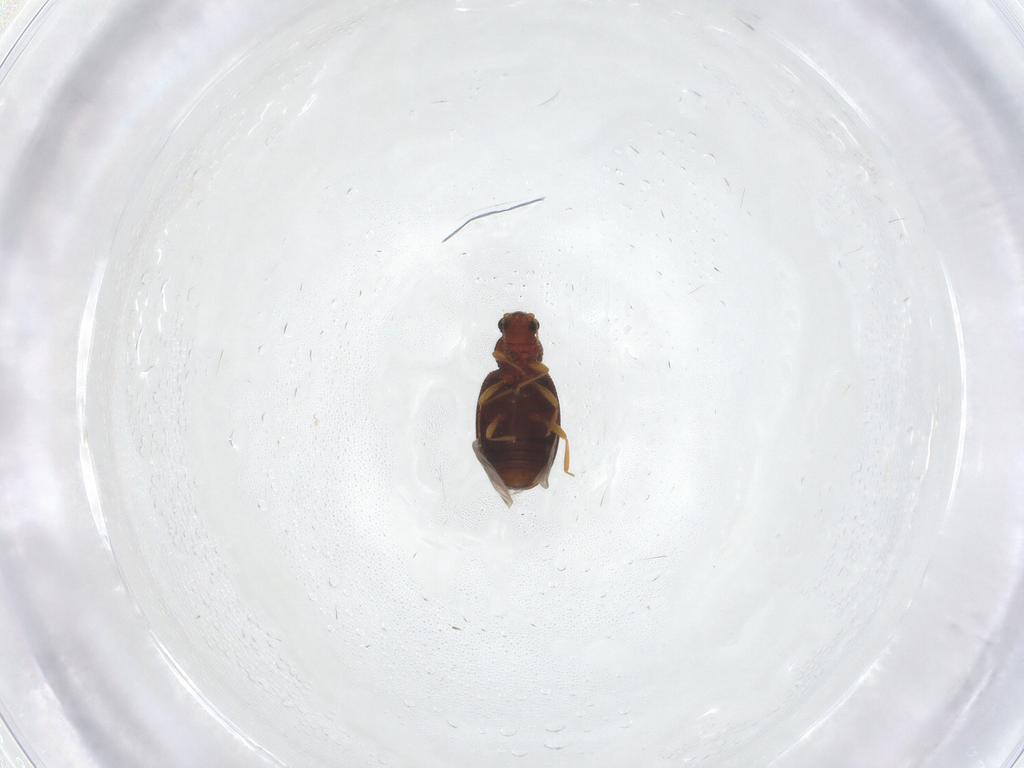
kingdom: Animalia
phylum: Arthropoda
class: Insecta
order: Coleoptera
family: Latridiidae
